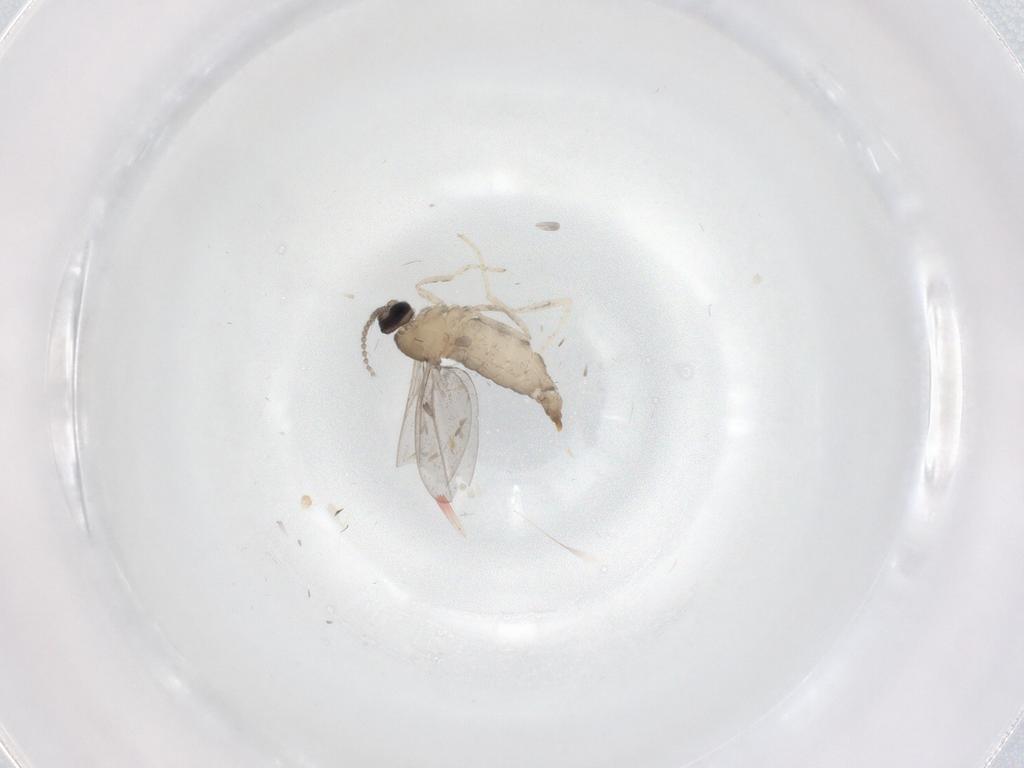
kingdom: Animalia
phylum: Arthropoda
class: Insecta
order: Diptera
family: Cecidomyiidae
